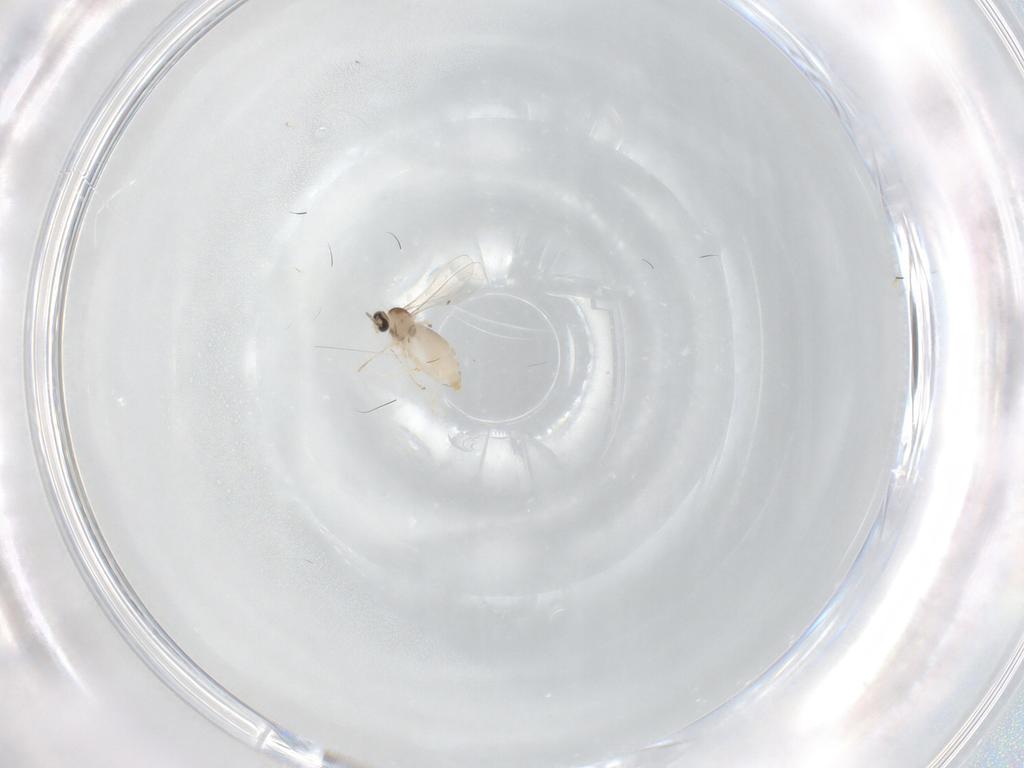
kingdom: Animalia
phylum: Arthropoda
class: Insecta
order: Diptera
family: Cecidomyiidae
